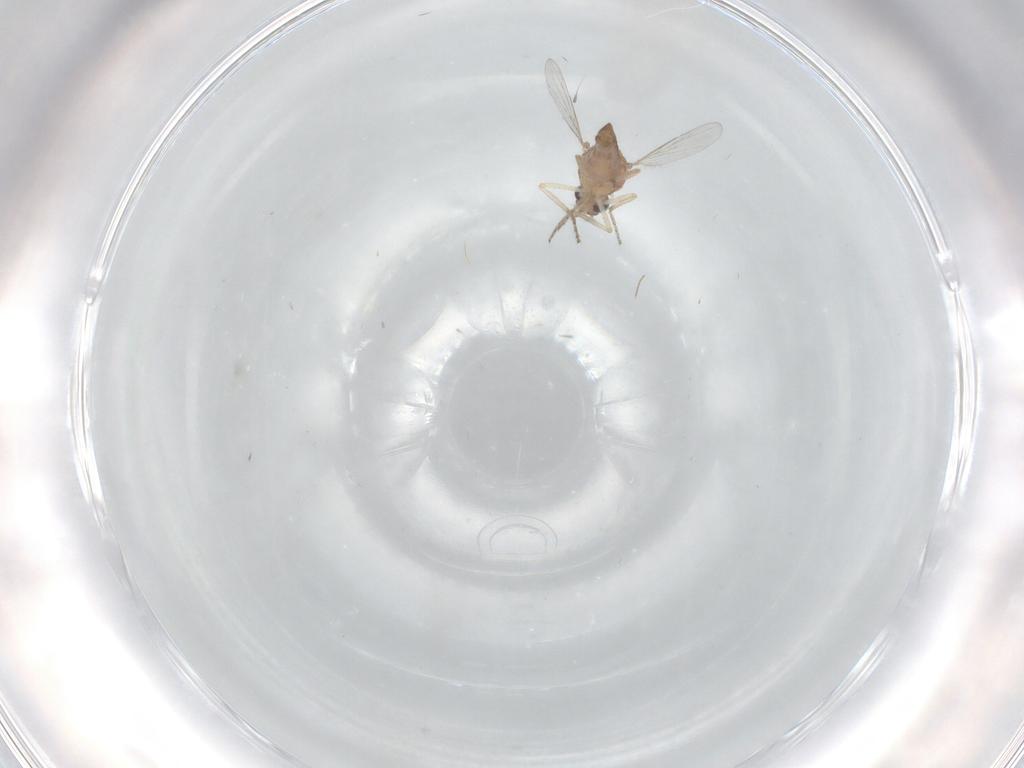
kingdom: Animalia
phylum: Arthropoda
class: Insecta
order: Diptera
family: Ceratopogonidae
